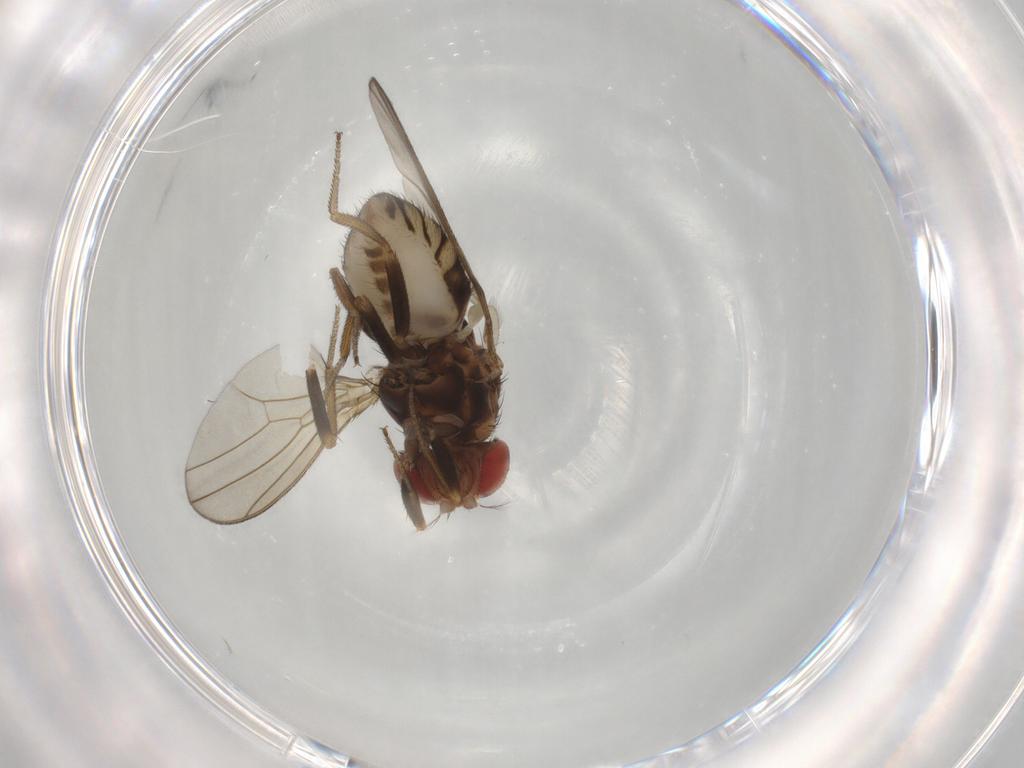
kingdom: Animalia
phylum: Arthropoda
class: Insecta
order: Diptera
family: Drosophilidae
